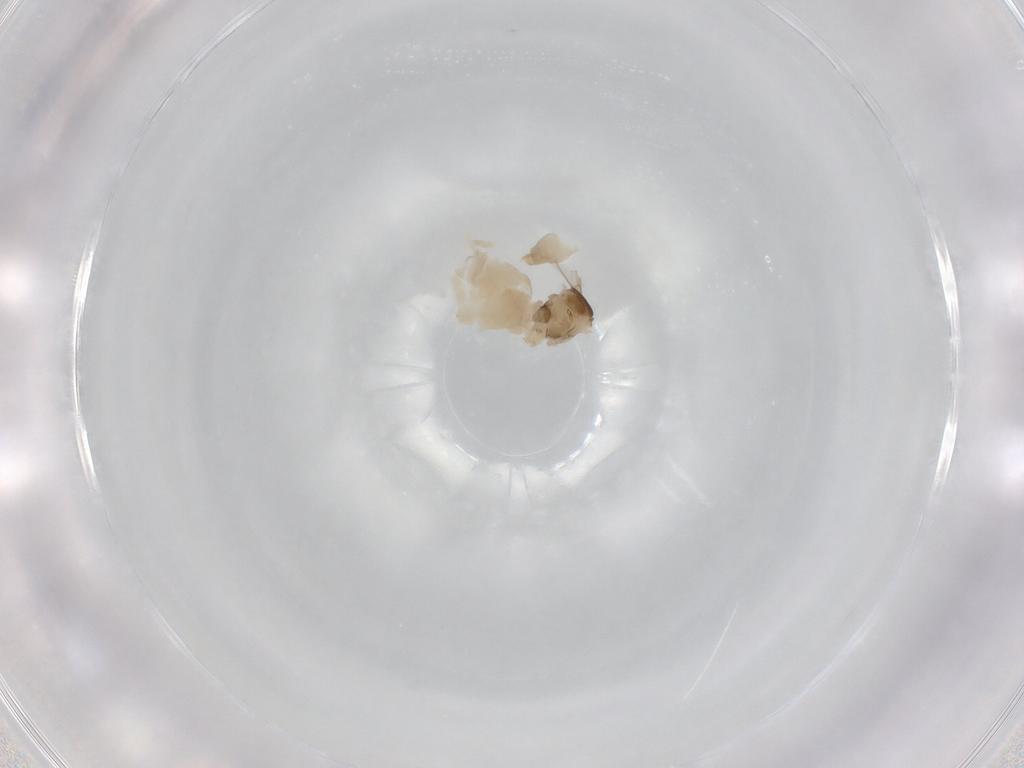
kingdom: Animalia
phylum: Arthropoda
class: Insecta
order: Diptera
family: Cecidomyiidae
